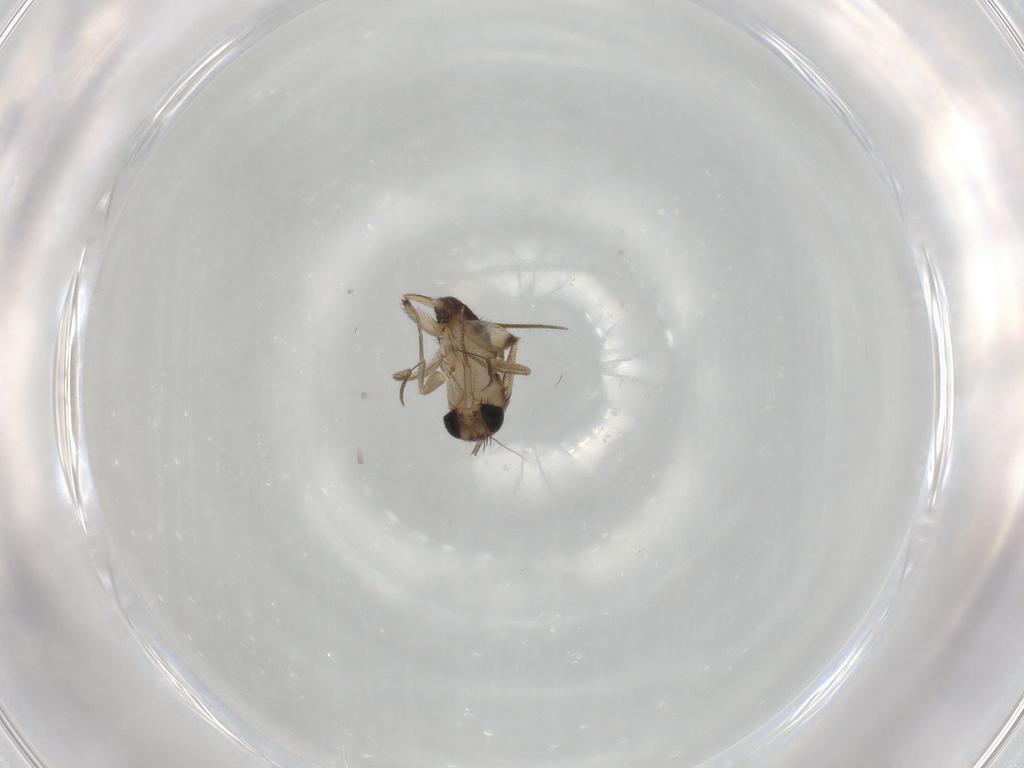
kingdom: Animalia
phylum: Arthropoda
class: Insecta
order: Diptera
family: Phoridae
